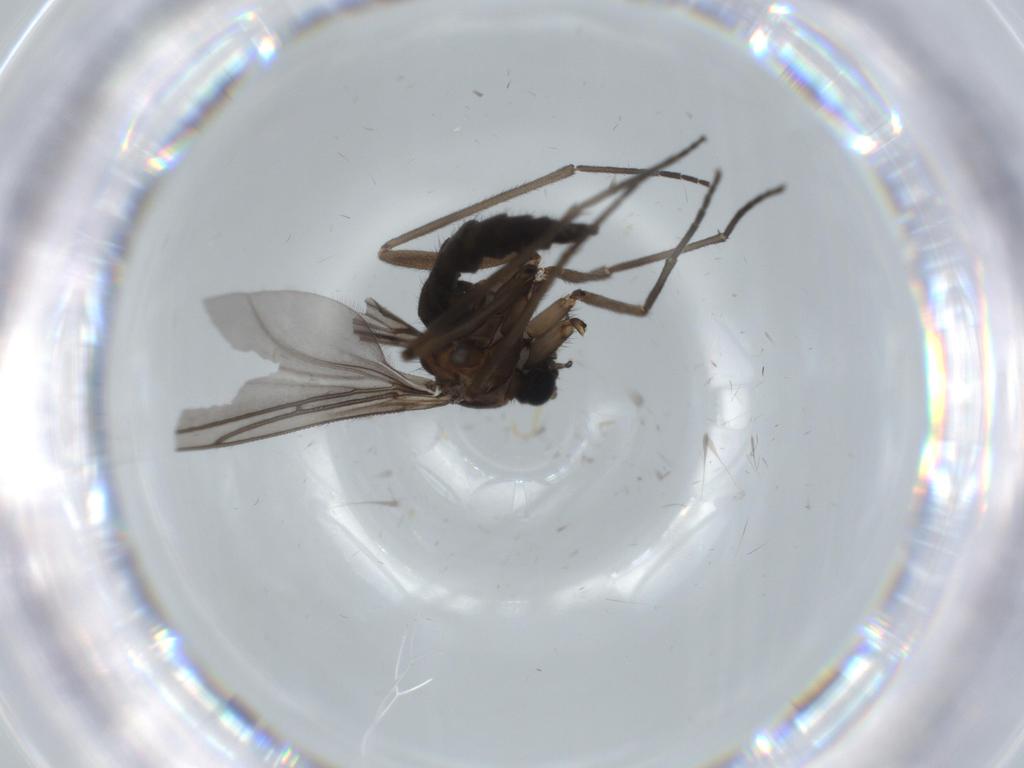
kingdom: Animalia
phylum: Arthropoda
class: Insecta
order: Diptera
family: Sciaridae
